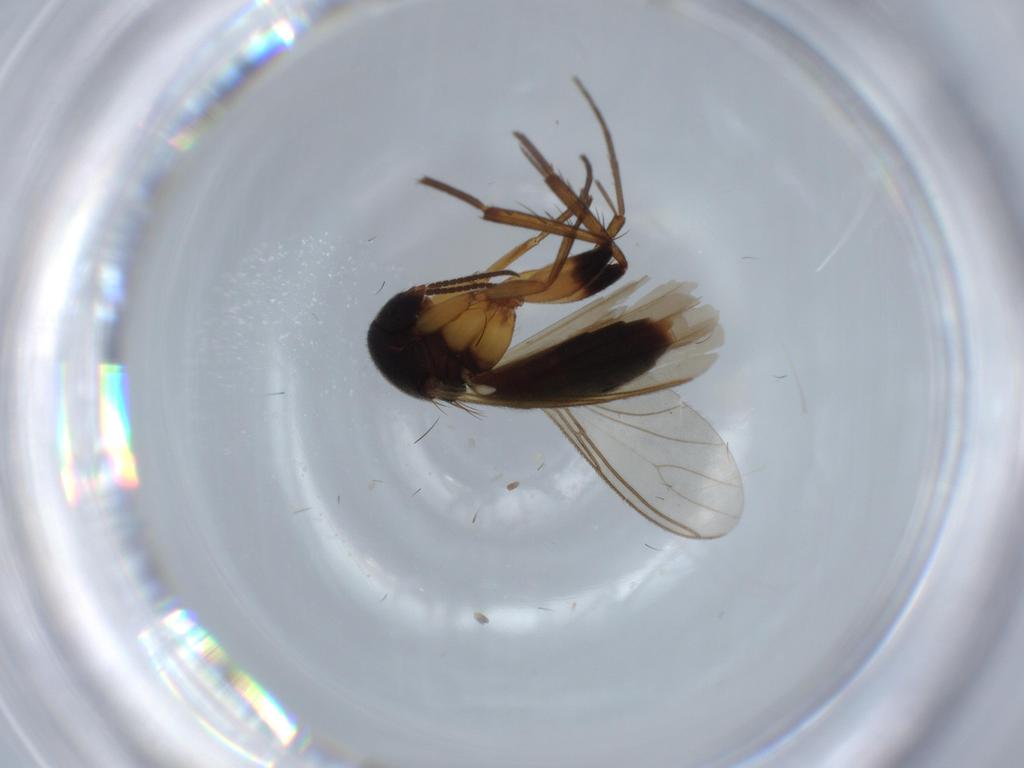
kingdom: Animalia
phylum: Arthropoda
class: Insecta
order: Diptera
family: Mycetophilidae
